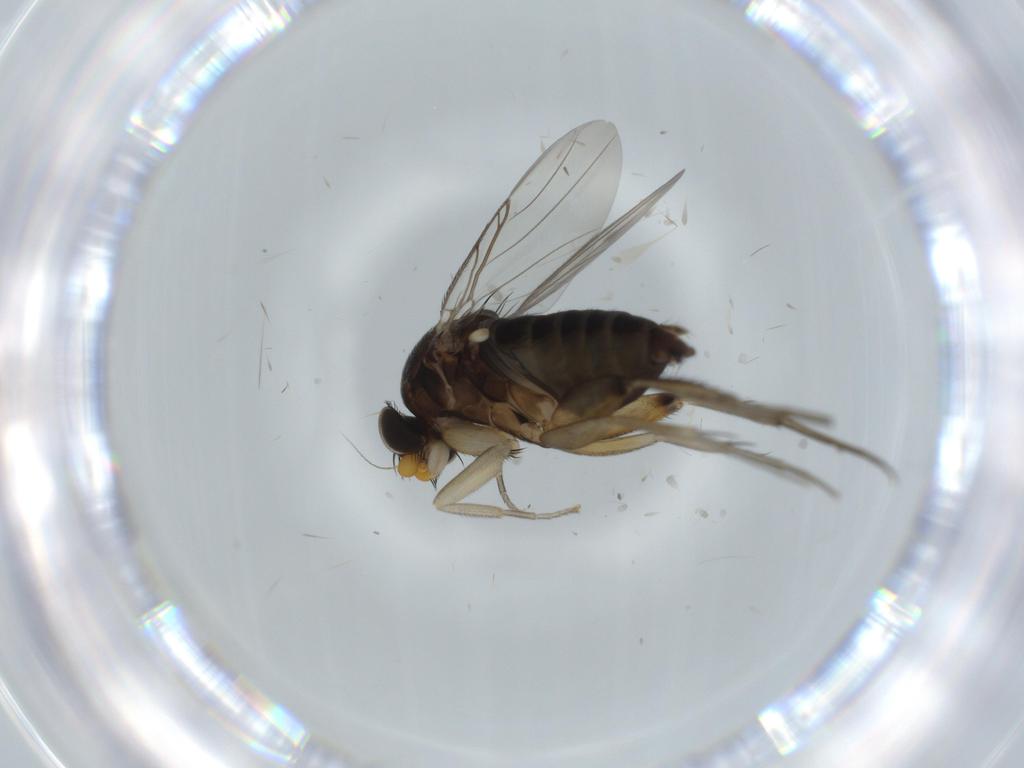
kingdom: Animalia
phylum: Arthropoda
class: Insecta
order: Diptera
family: Phoridae
